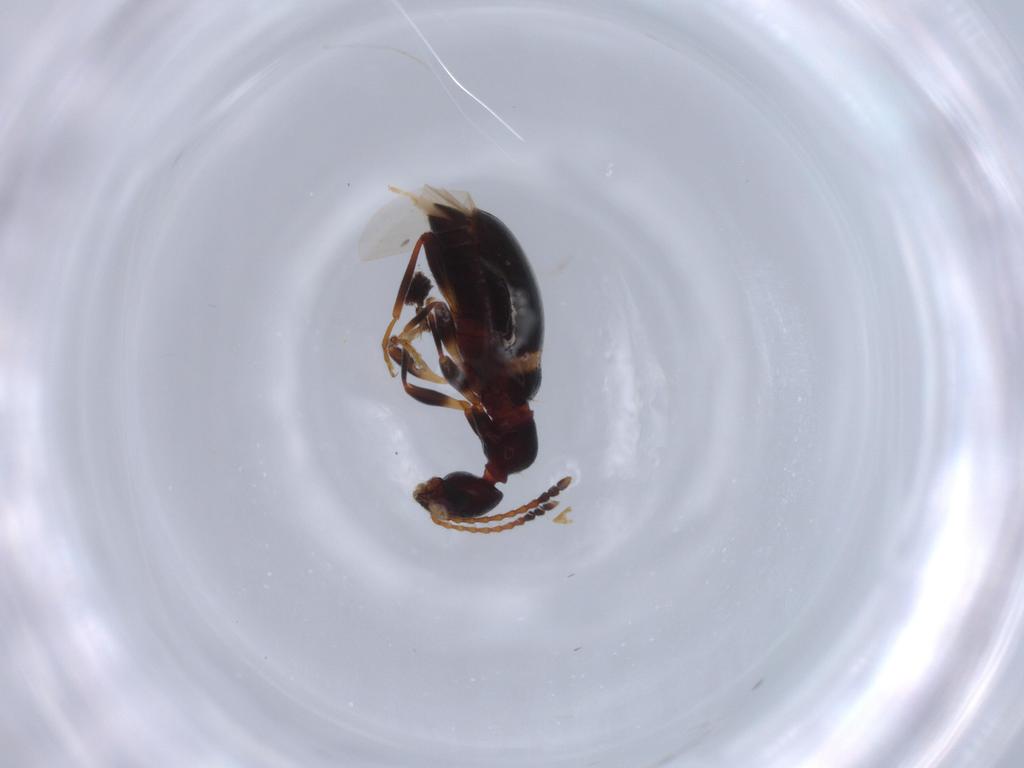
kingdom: Animalia
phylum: Arthropoda
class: Insecta
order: Coleoptera
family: Anthicidae
